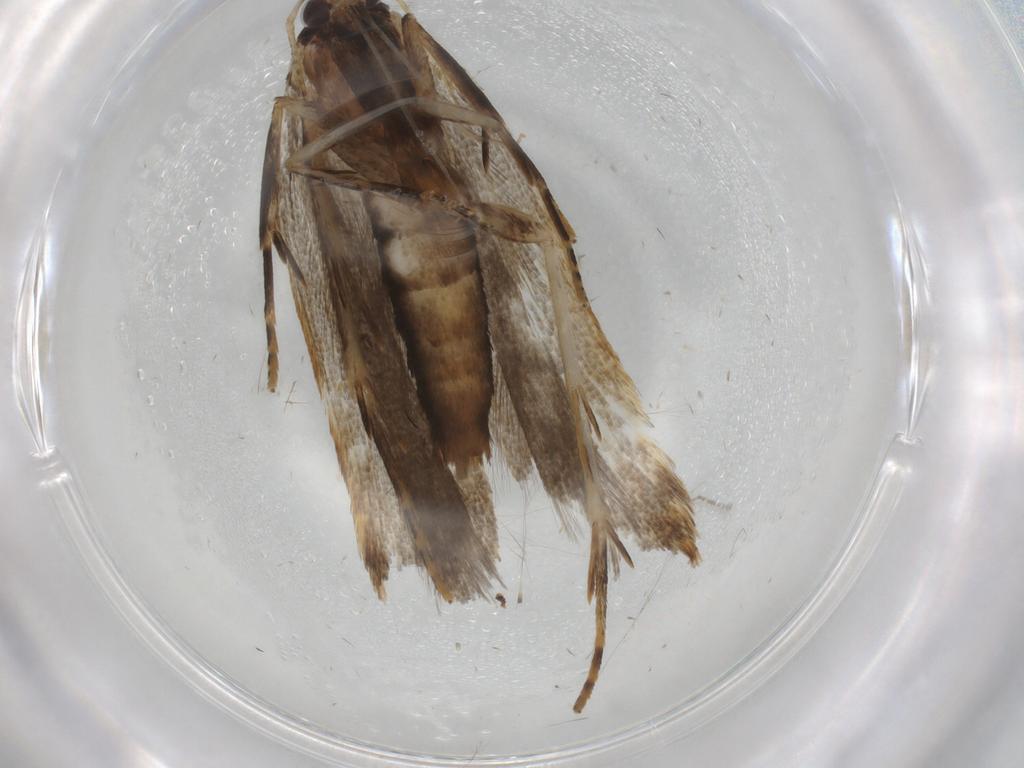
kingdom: Animalia
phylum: Arthropoda
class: Insecta
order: Lepidoptera
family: Gelechiidae
